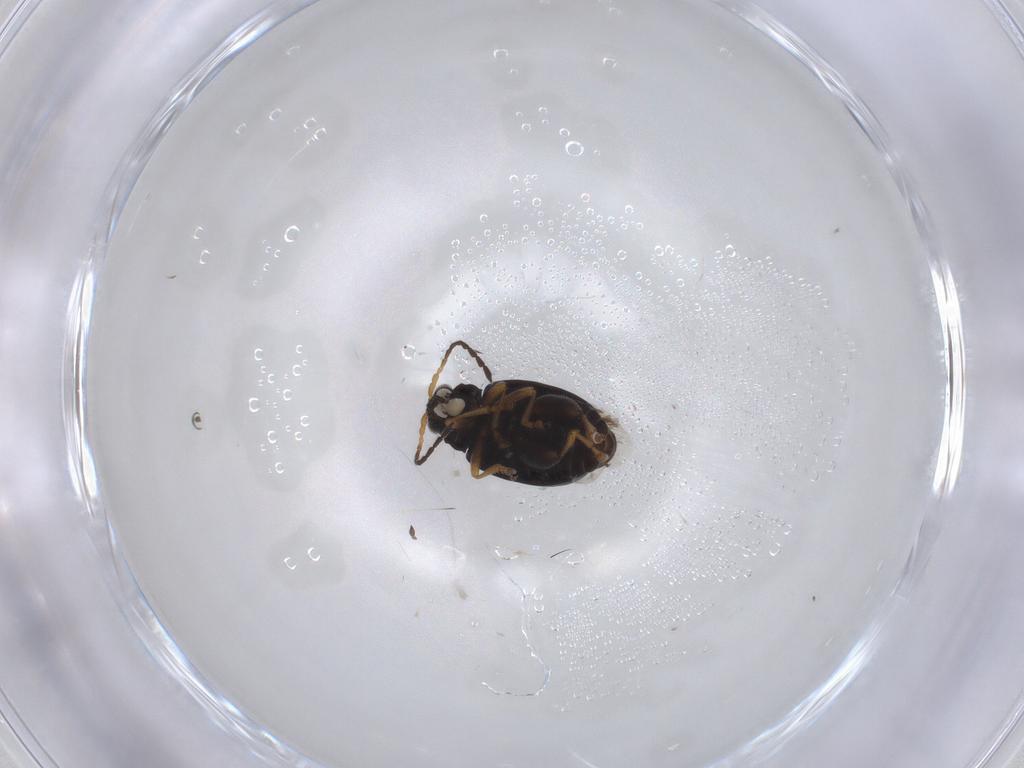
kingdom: Animalia
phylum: Arthropoda
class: Insecta
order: Coleoptera
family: Chrysomelidae
